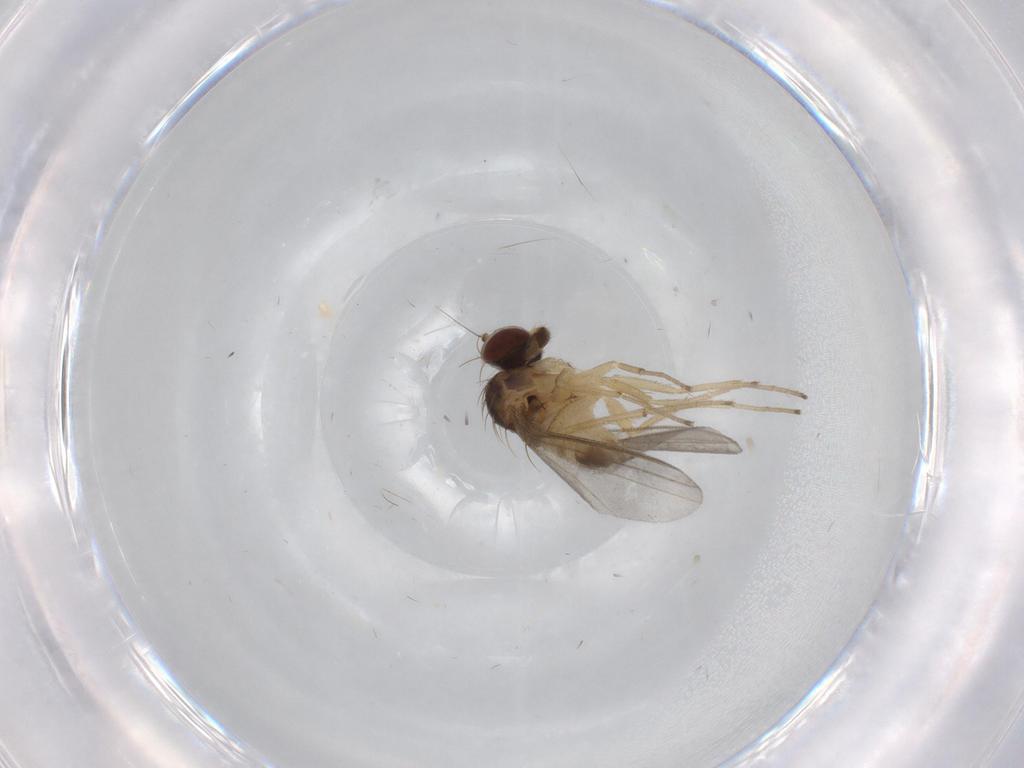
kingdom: Animalia
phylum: Arthropoda
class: Insecta
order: Diptera
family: Dolichopodidae
